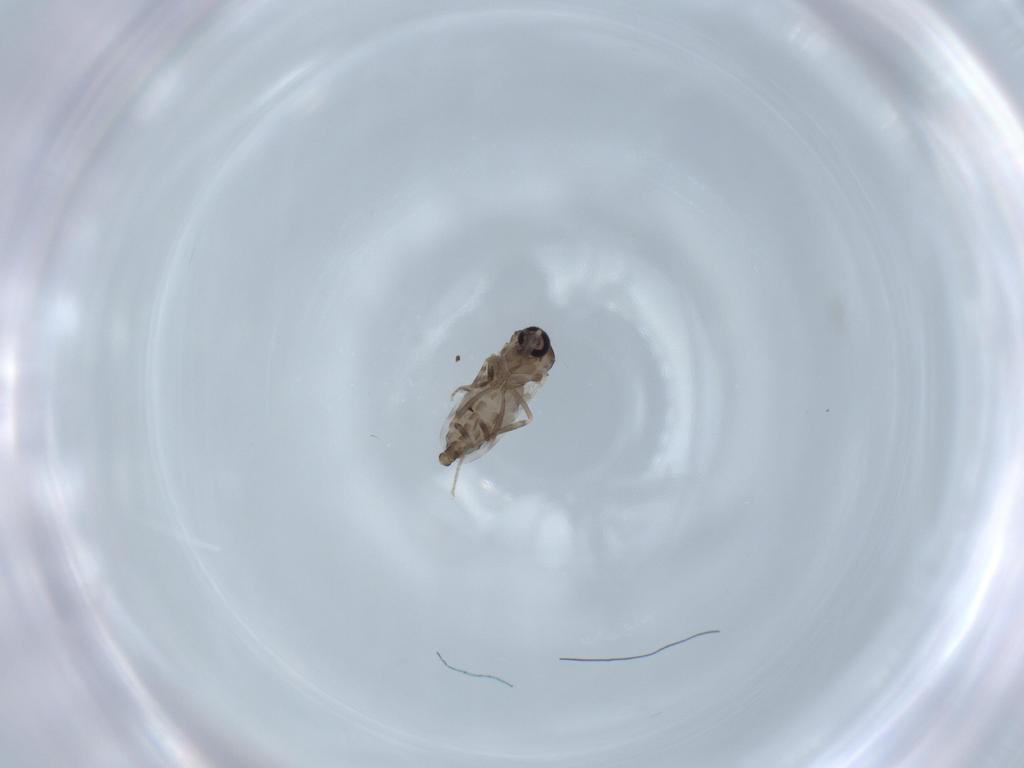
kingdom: Animalia
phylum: Arthropoda
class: Insecta
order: Diptera
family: Ceratopogonidae
